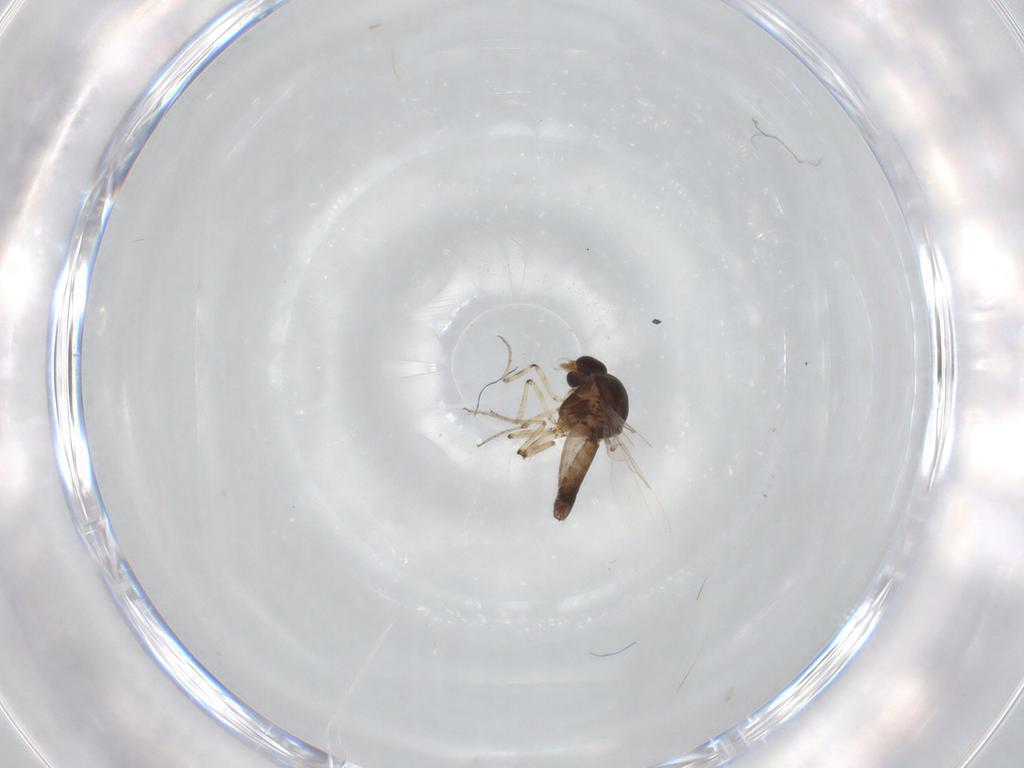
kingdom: Animalia
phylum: Arthropoda
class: Insecta
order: Diptera
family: Ceratopogonidae
